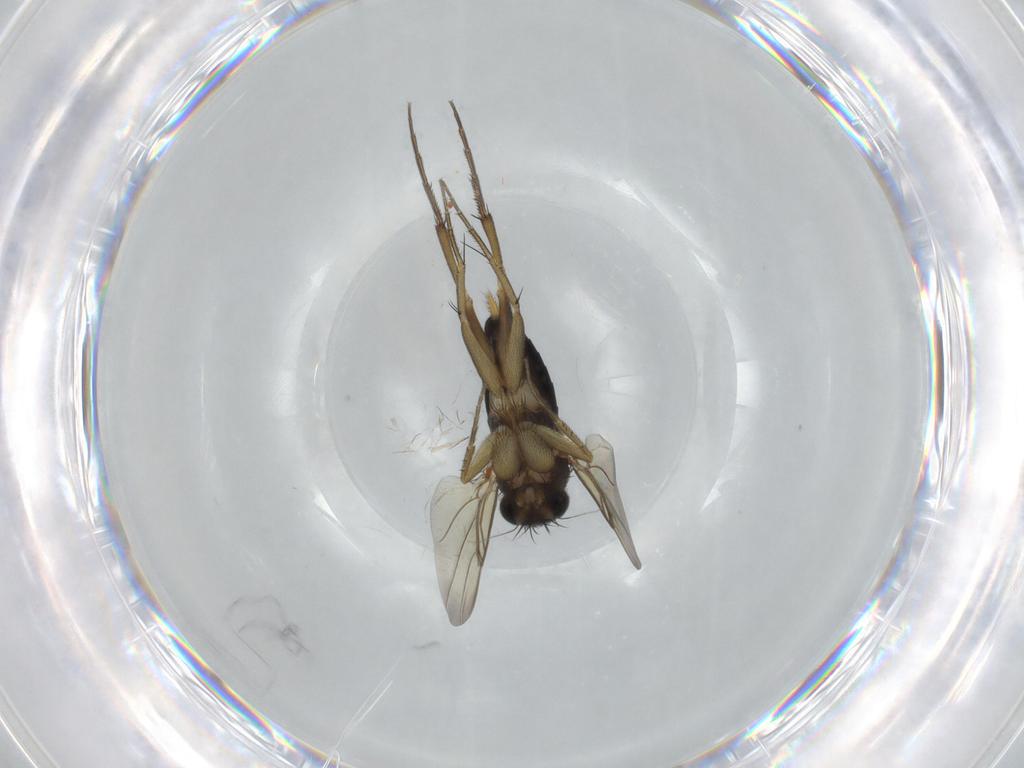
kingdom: Animalia
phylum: Arthropoda
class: Insecta
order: Diptera
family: Phoridae
